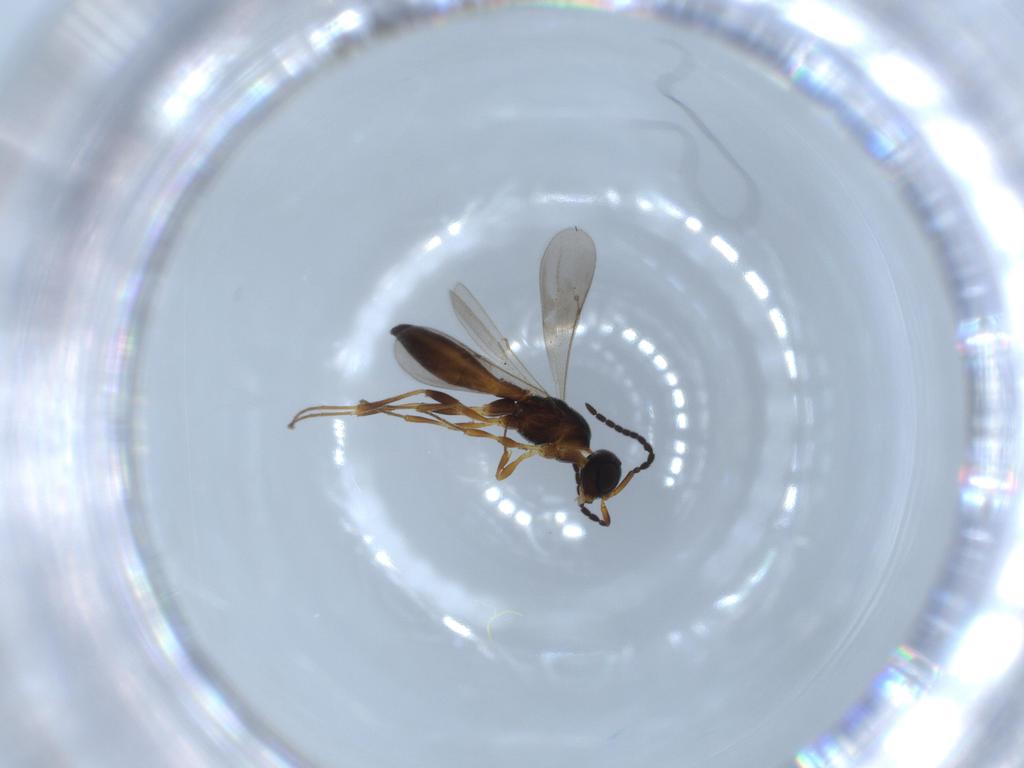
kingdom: Animalia
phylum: Arthropoda
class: Insecta
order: Hymenoptera
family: Scelionidae
